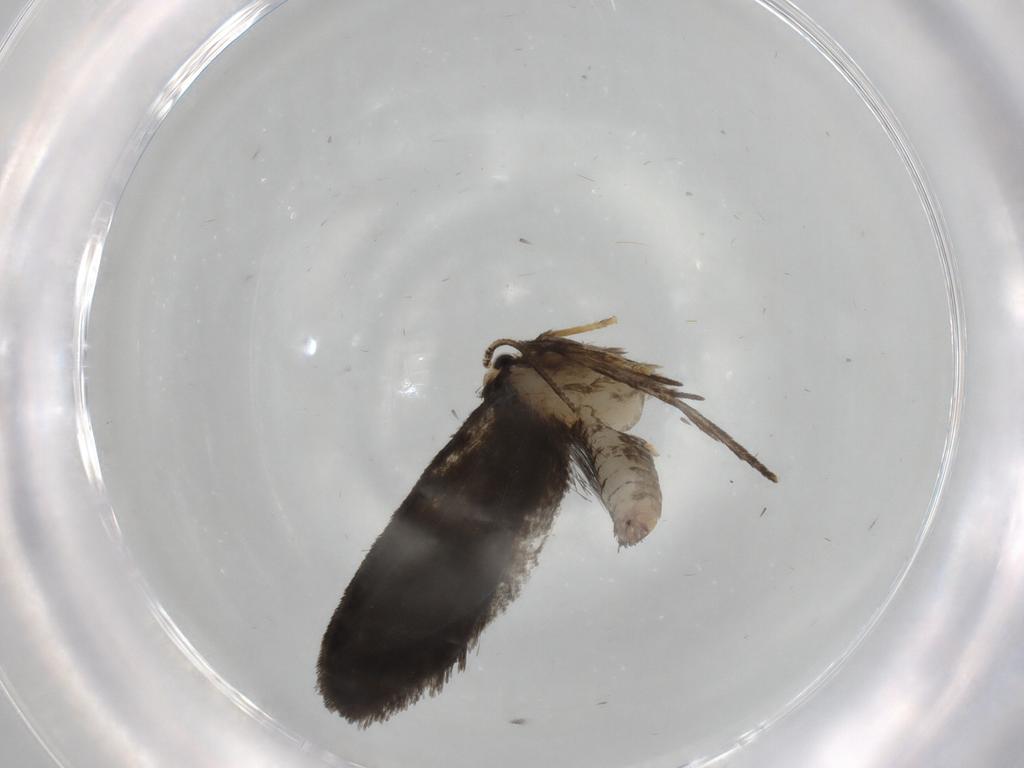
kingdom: Animalia
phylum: Arthropoda
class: Insecta
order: Lepidoptera
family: Psychidae
